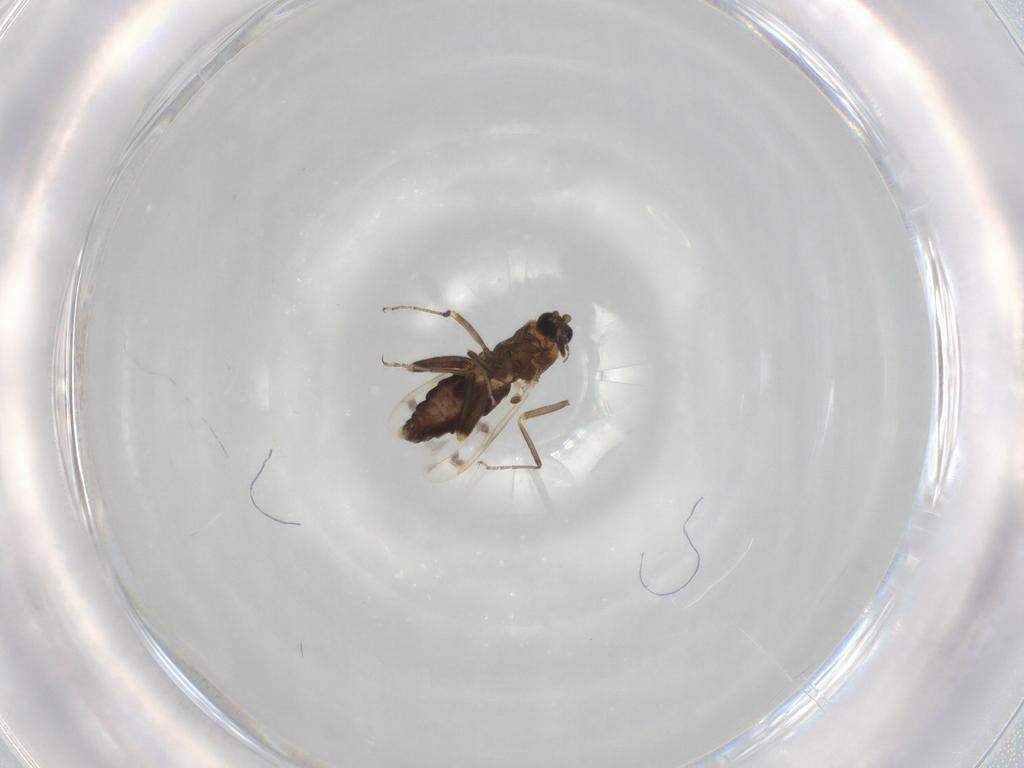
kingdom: Animalia
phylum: Arthropoda
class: Insecta
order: Diptera
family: Ceratopogonidae
